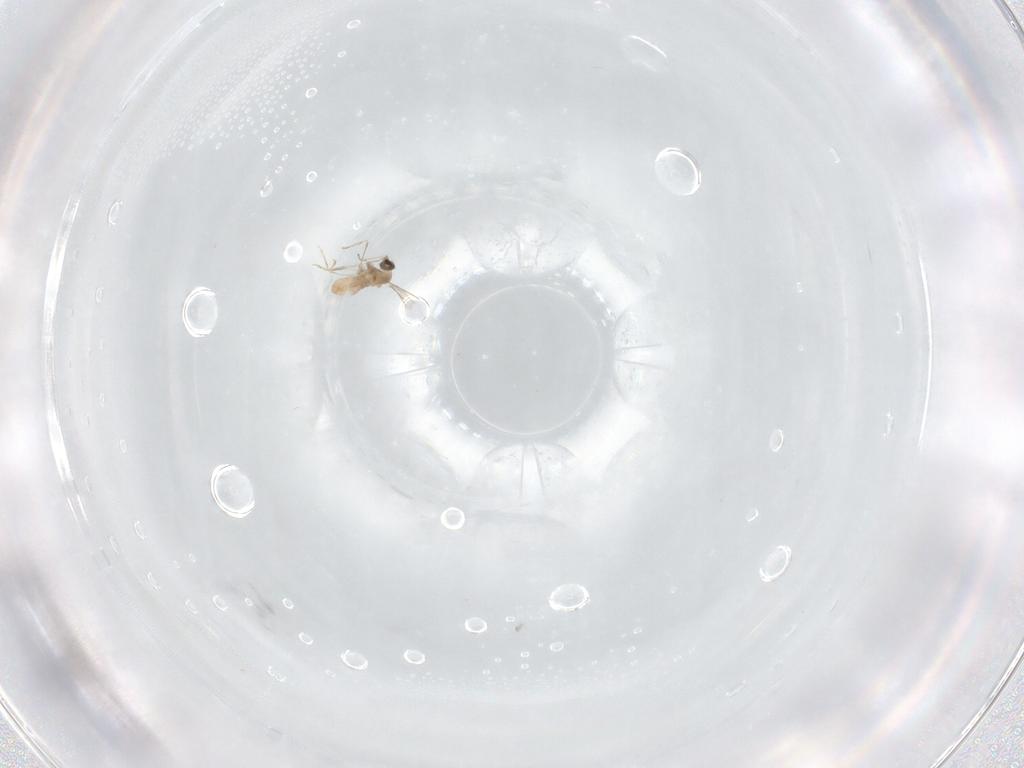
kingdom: Animalia
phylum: Arthropoda
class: Insecta
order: Diptera
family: Cecidomyiidae
